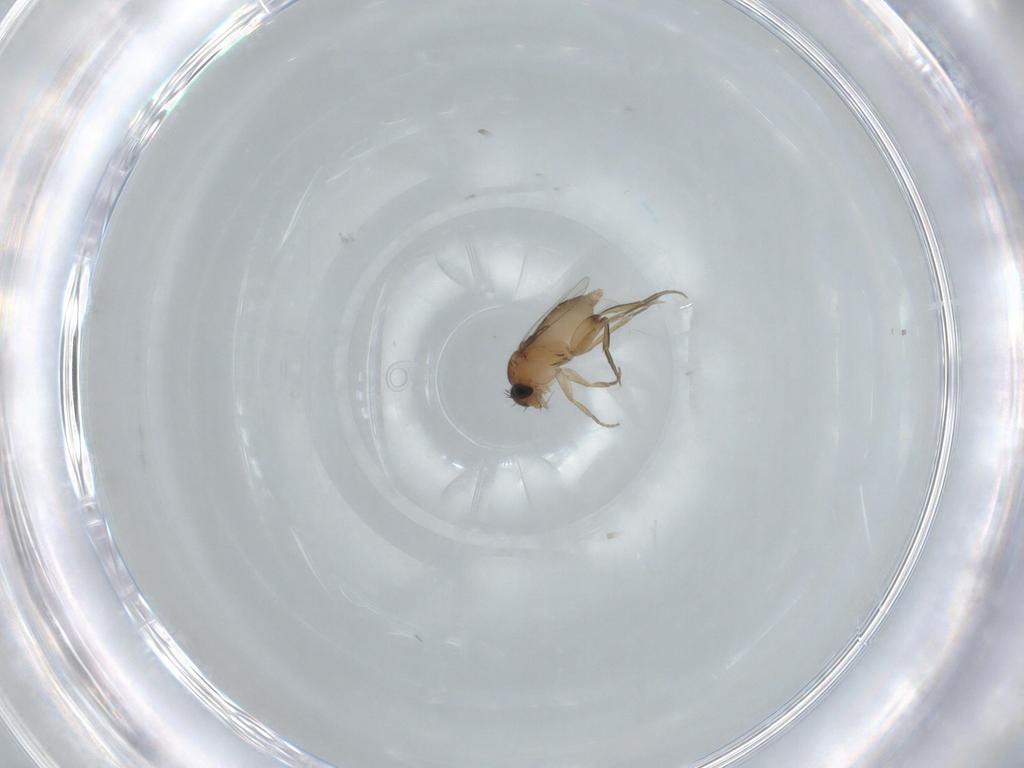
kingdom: Animalia
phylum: Arthropoda
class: Insecta
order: Diptera
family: Cecidomyiidae
